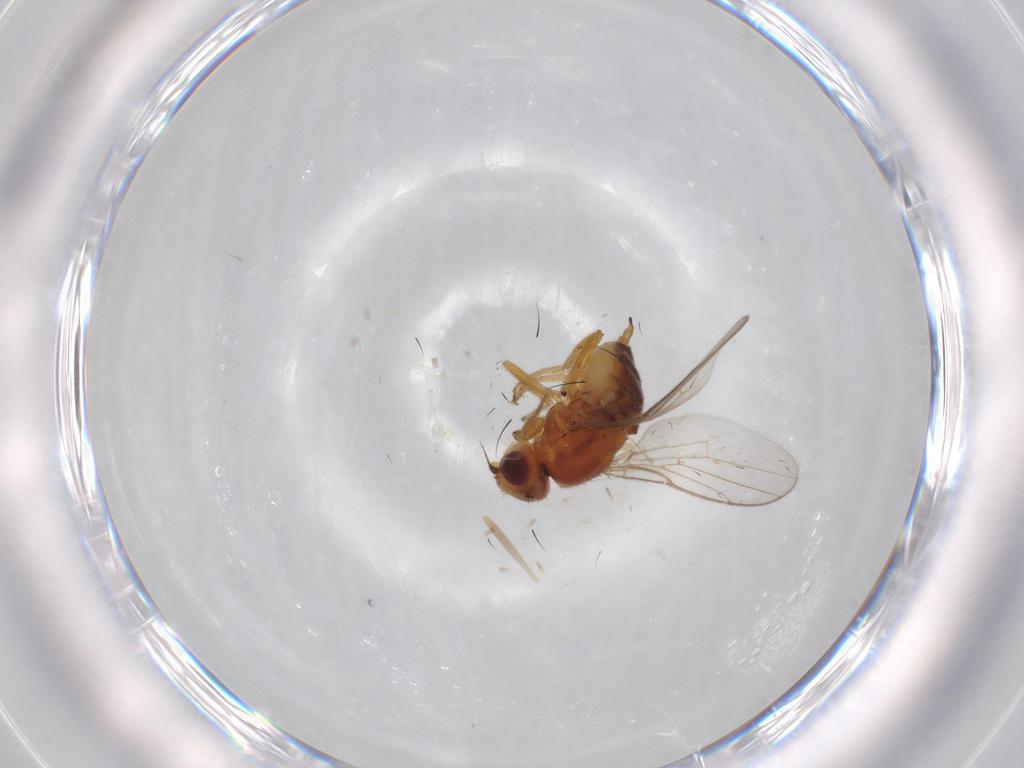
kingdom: Animalia
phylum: Arthropoda
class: Insecta
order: Diptera
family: Chloropidae
